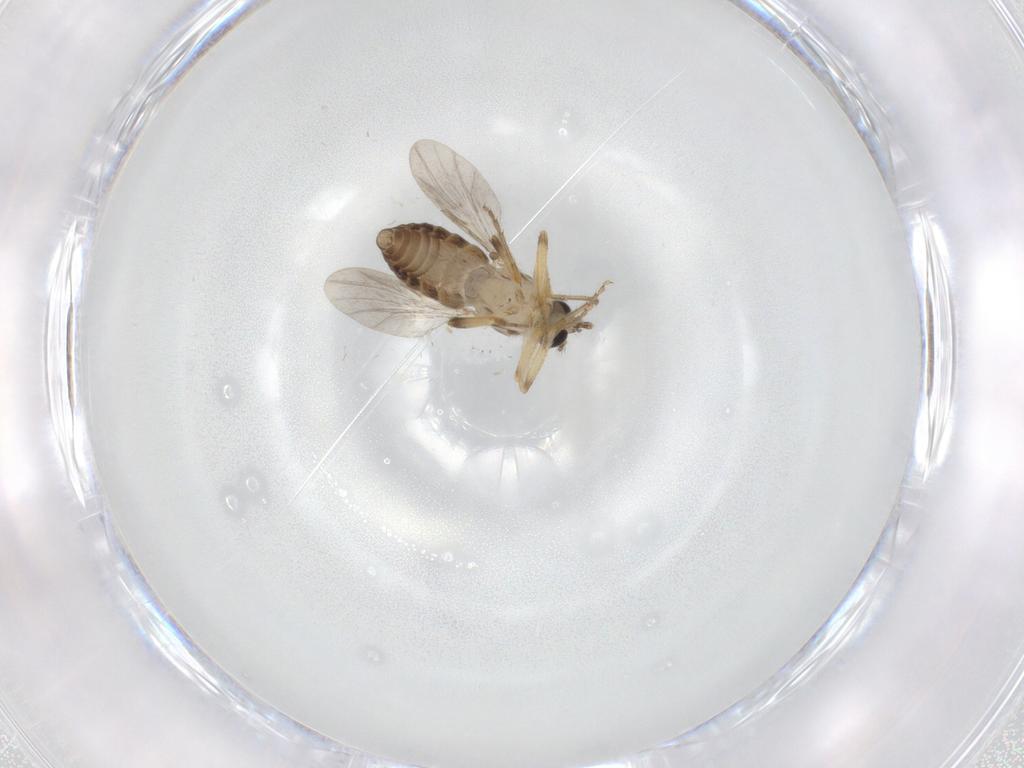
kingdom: Animalia
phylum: Arthropoda
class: Insecta
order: Diptera
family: Ceratopogonidae
